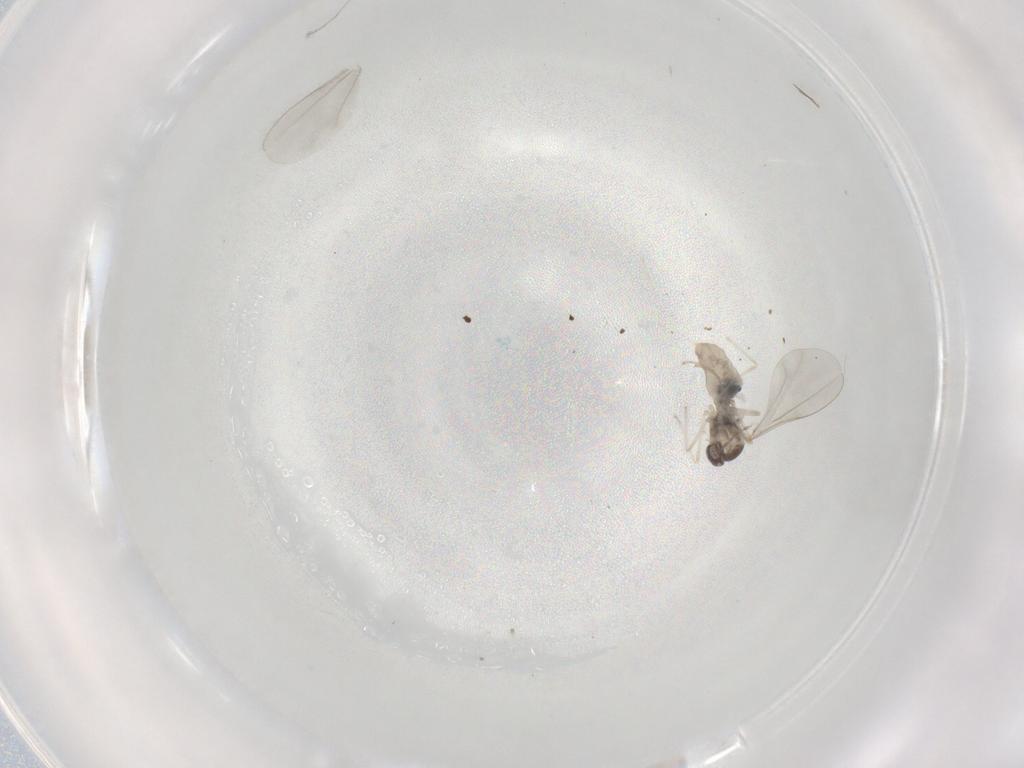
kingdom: Animalia
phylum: Arthropoda
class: Insecta
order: Diptera
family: Cecidomyiidae
